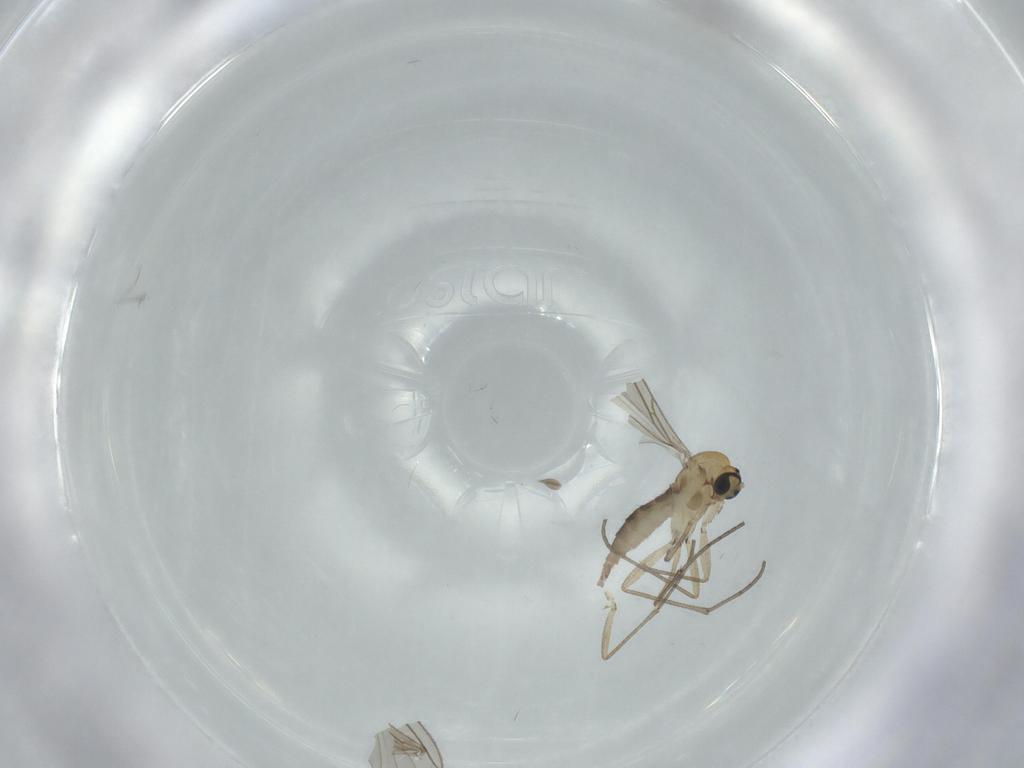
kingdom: Animalia
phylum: Arthropoda
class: Insecta
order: Diptera
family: Sciaridae
